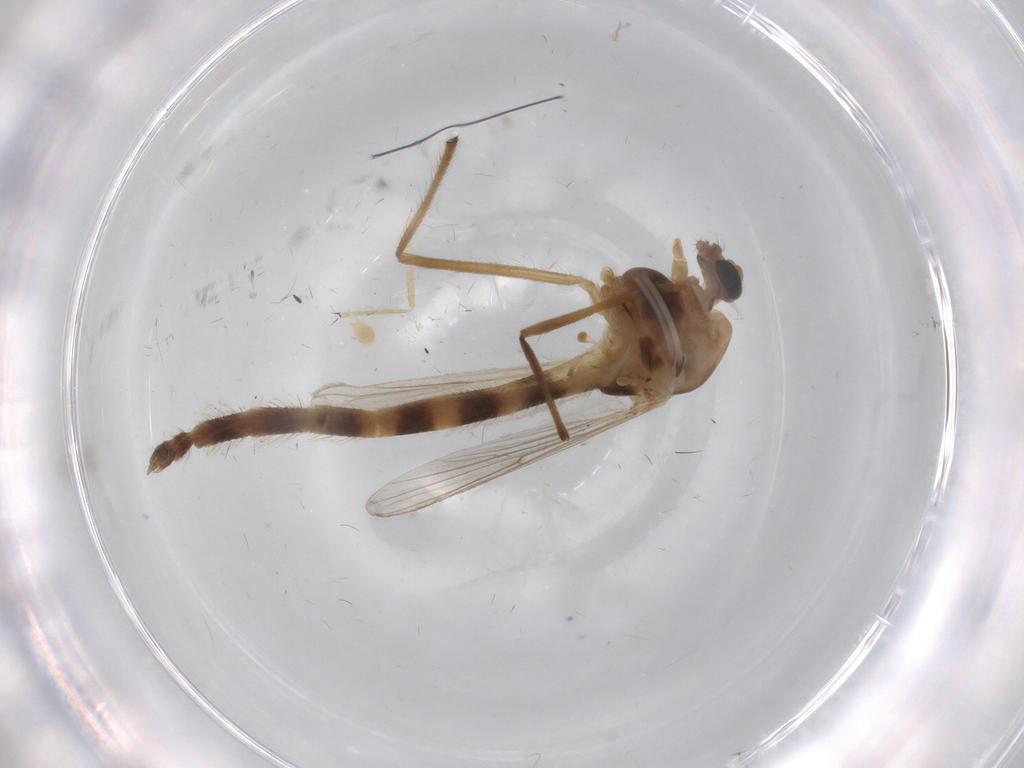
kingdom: Animalia
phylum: Arthropoda
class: Insecta
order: Diptera
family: Chironomidae
